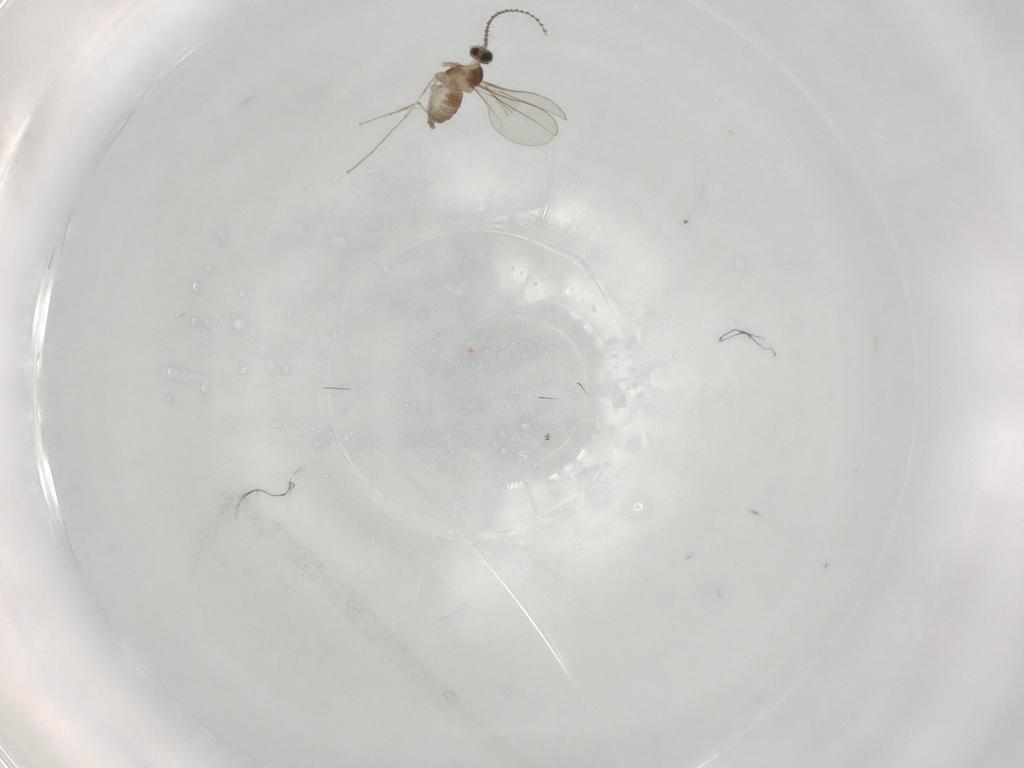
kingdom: Animalia
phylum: Arthropoda
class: Insecta
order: Diptera
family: Cecidomyiidae
